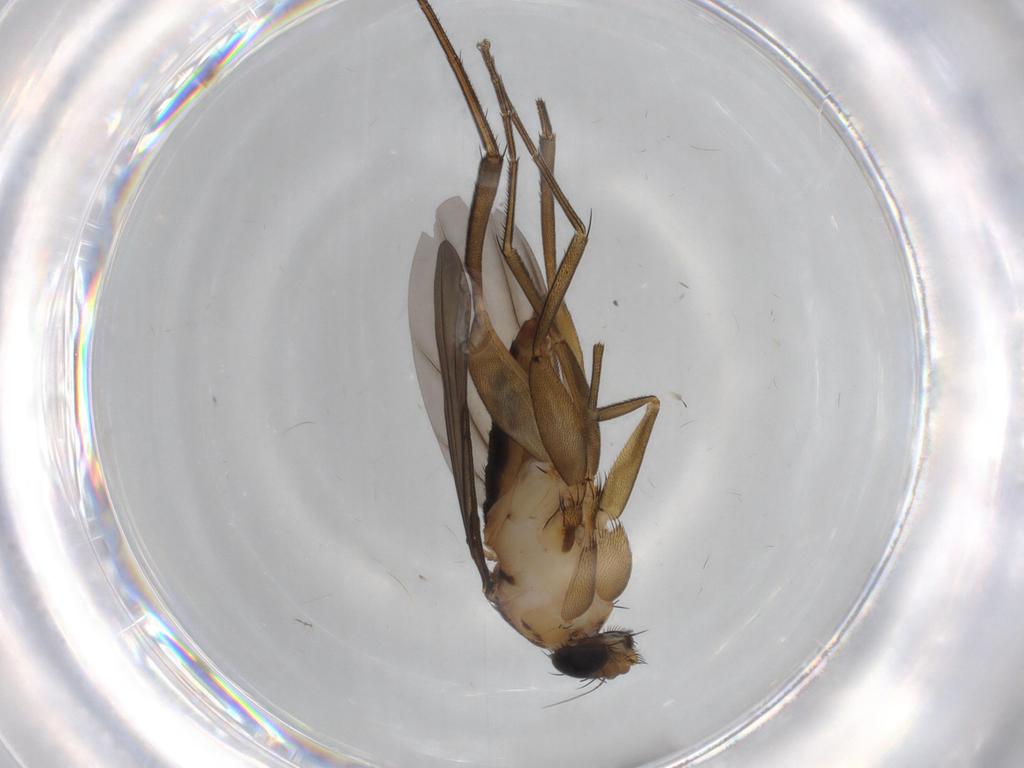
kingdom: Animalia
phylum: Arthropoda
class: Insecta
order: Diptera
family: Phoridae
